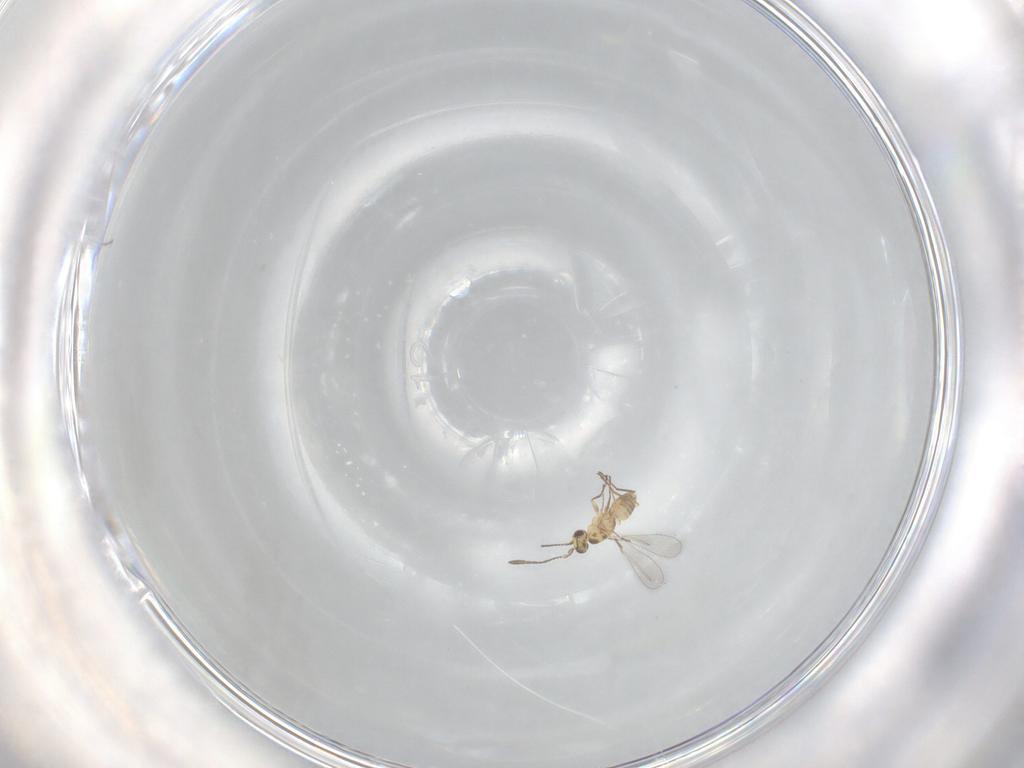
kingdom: Animalia
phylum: Arthropoda
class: Insecta
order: Hymenoptera
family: Mymaridae
